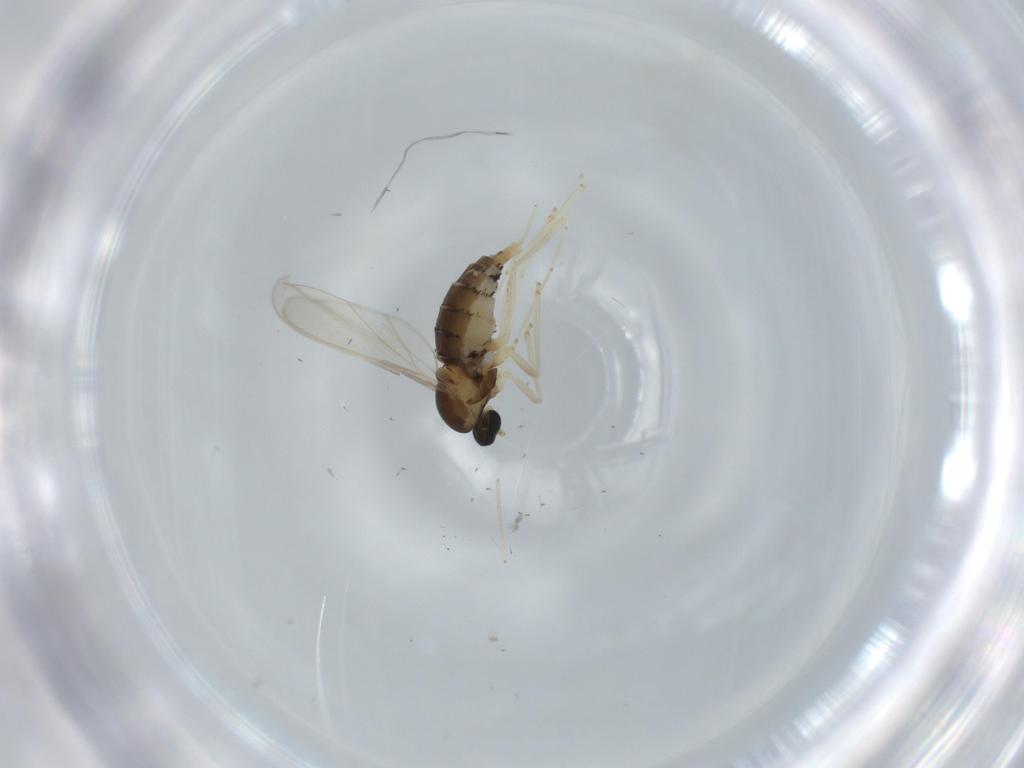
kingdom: Animalia
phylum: Arthropoda
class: Insecta
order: Diptera
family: Cecidomyiidae
